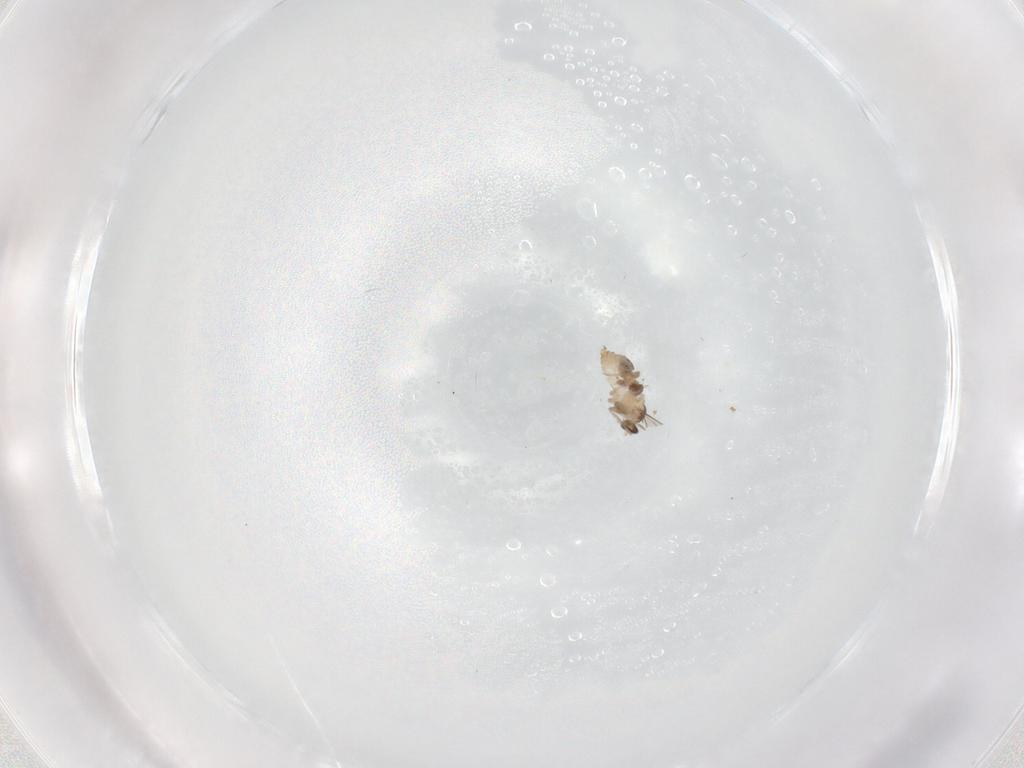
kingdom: Animalia
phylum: Arthropoda
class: Insecta
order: Diptera
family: Cecidomyiidae
